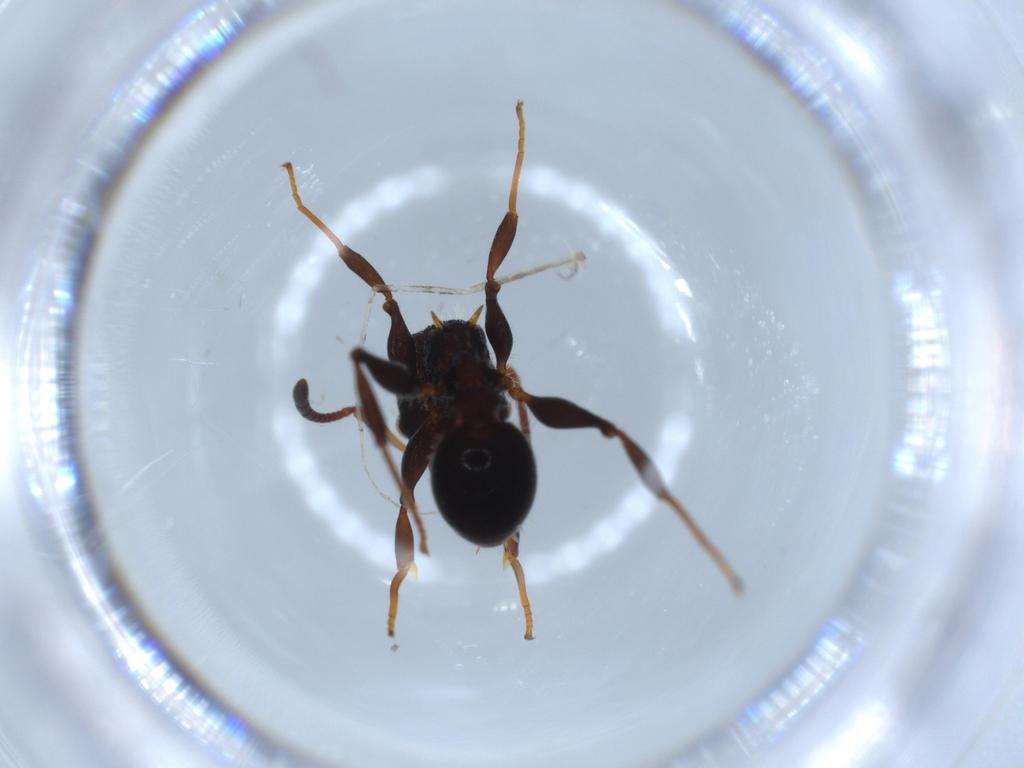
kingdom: Animalia
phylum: Arthropoda
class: Insecta
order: Hymenoptera
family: Formicidae
